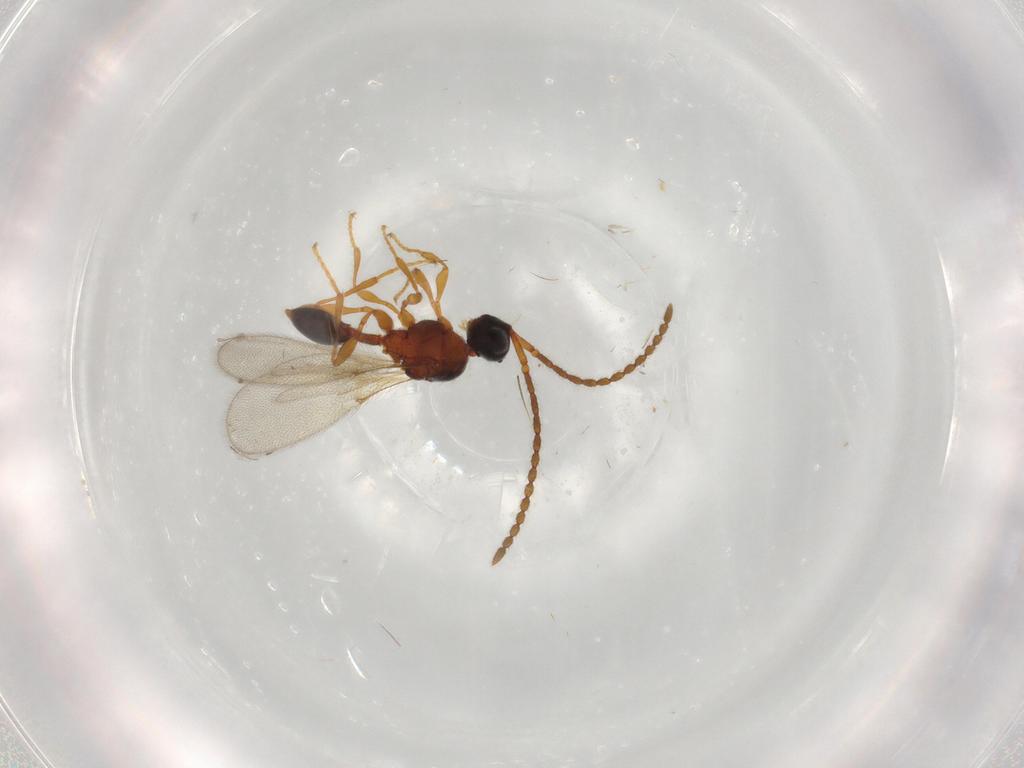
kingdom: Animalia
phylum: Arthropoda
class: Insecta
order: Hymenoptera
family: Diapriidae
